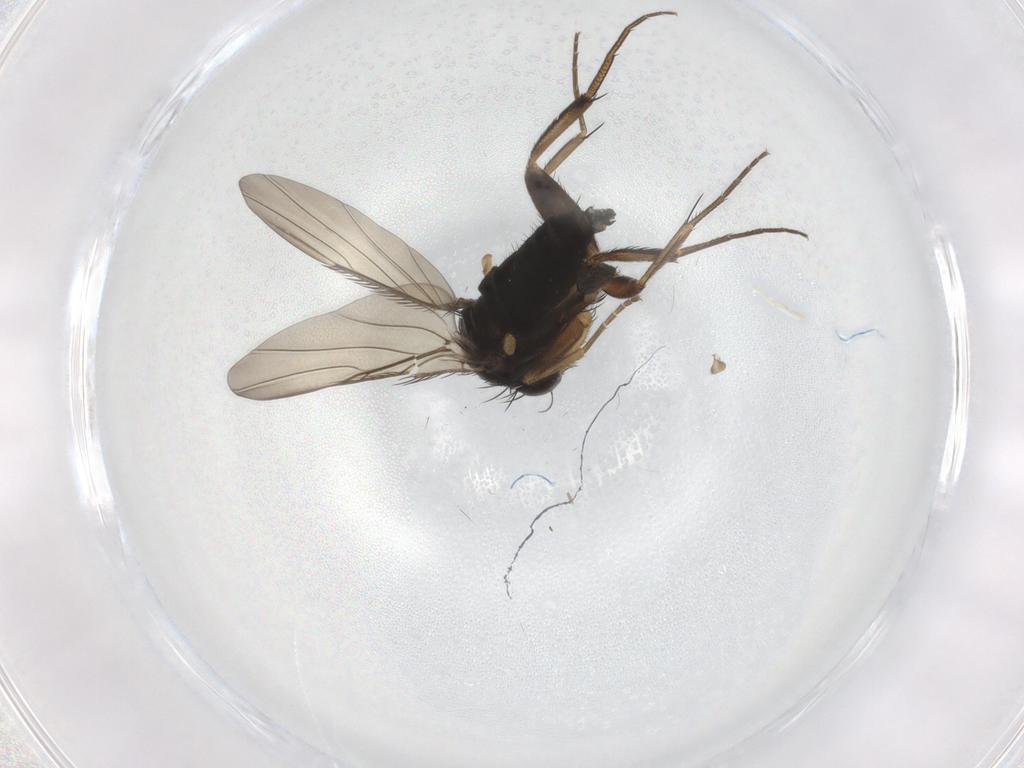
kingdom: Animalia
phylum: Arthropoda
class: Insecta
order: Diptera
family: Phoridae
